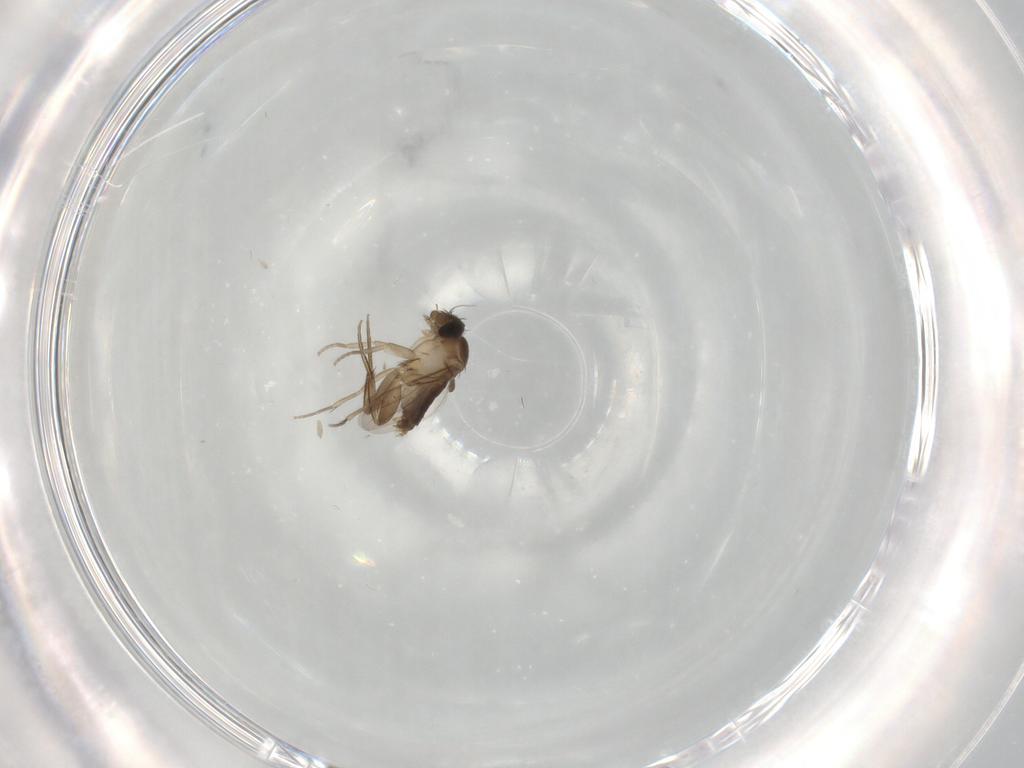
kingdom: Animalia
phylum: Arthropoda
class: Insecta
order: Diptera
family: Phoridae
